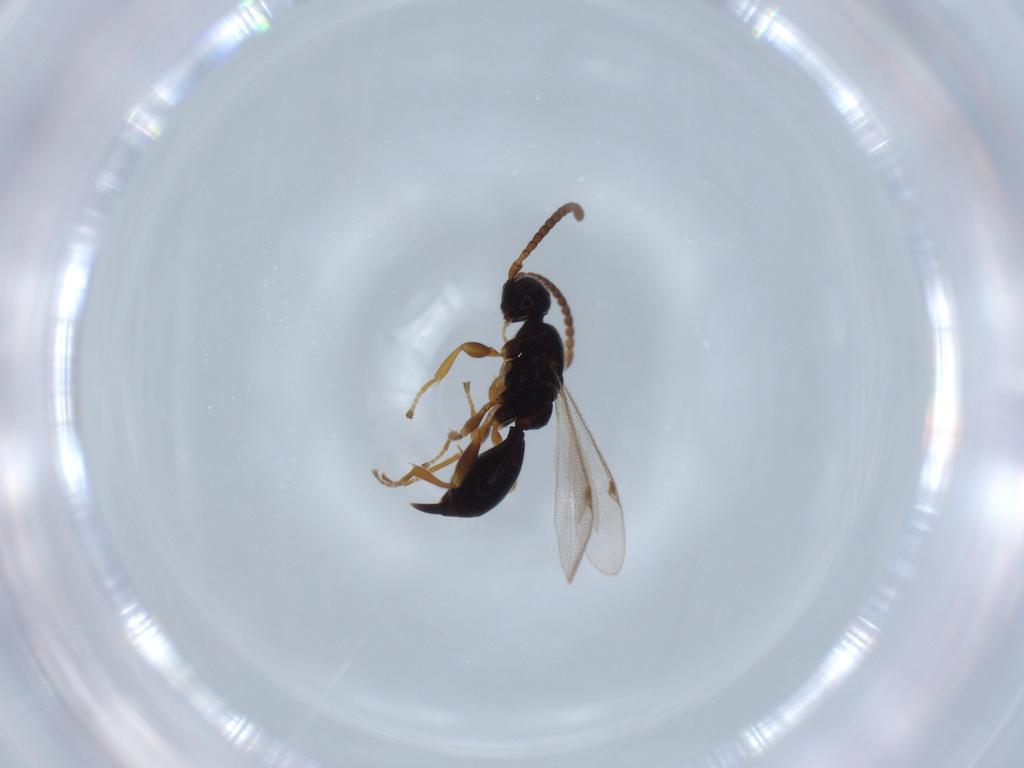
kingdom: Animalia
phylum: Arthropoda
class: Insecta
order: Hymenoptera
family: Proctotrupidae
